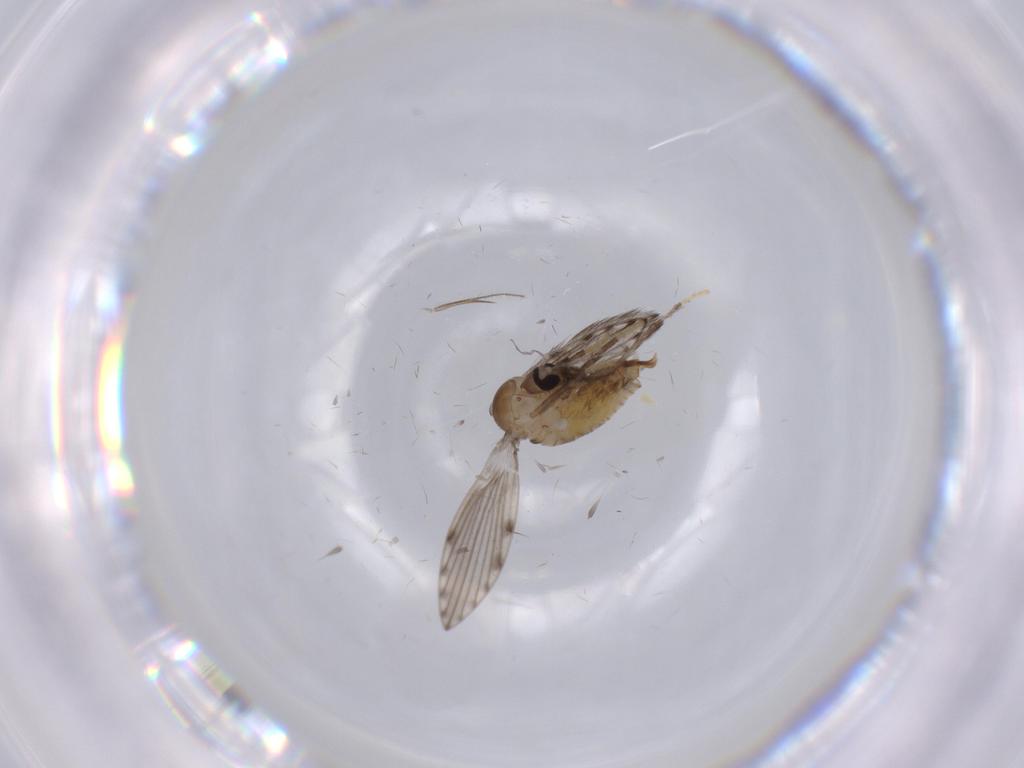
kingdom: Animalia
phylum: Arthropoda
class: Insecta
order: Diptera
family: Psychodidae
